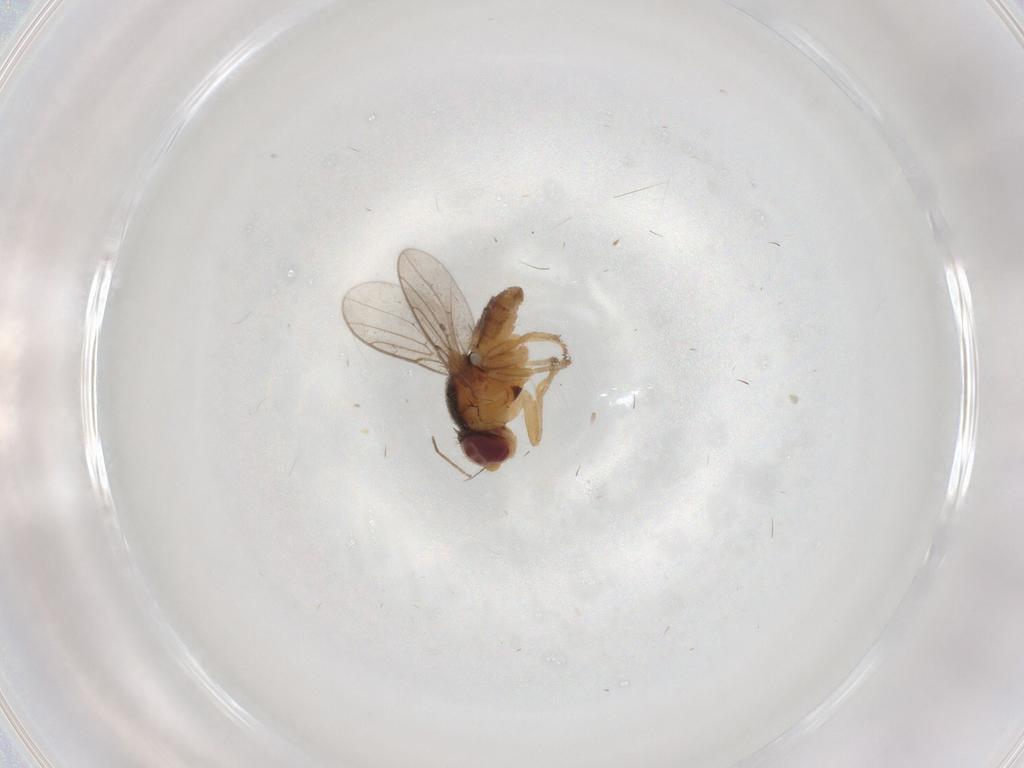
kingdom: Animalia
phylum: Arthropoda
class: Insecta
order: Diptera
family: Chloropidae
